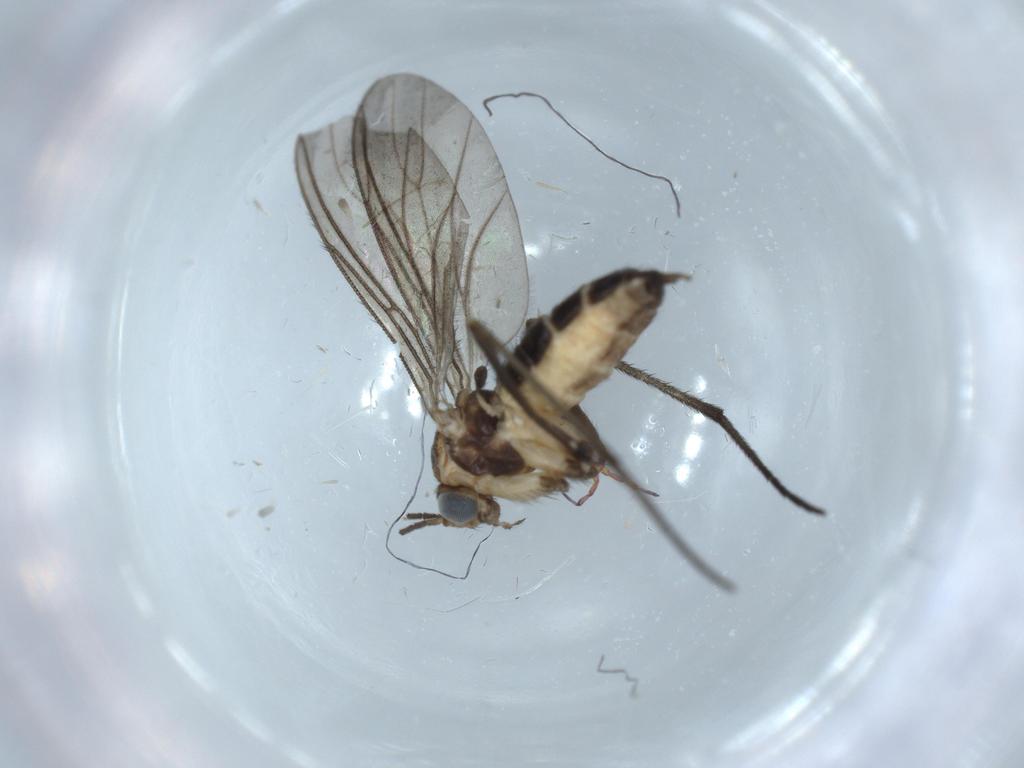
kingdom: Animalia
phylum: Arthropoda
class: Insecta
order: Diptera
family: Sciaridae
